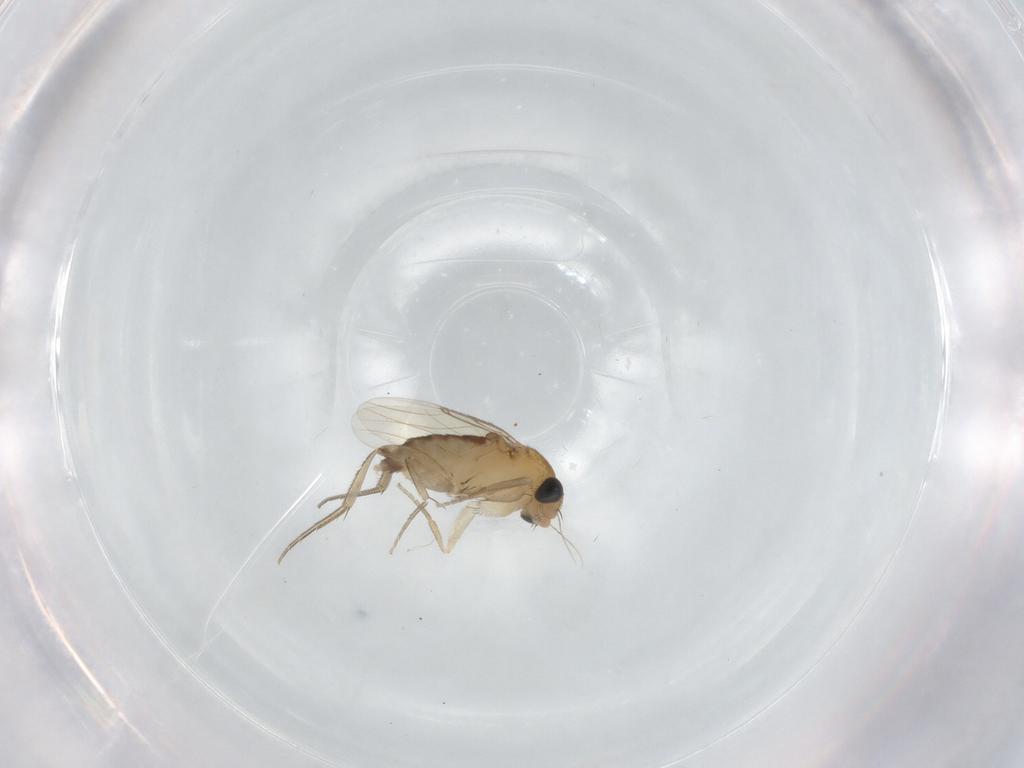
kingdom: Animalia
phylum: Arthropoda
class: Insecta
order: Diptera
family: Phoridae
